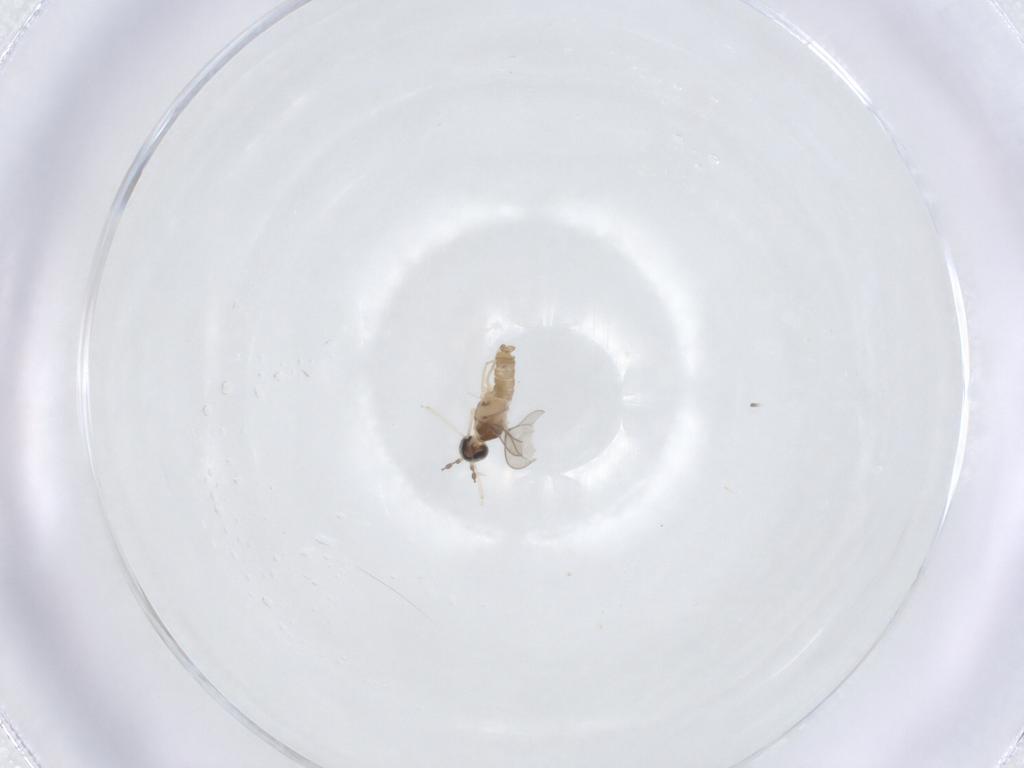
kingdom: Animalia
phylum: Arthropoda
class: Insecta
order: Diptera
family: Cecidomyiidae
